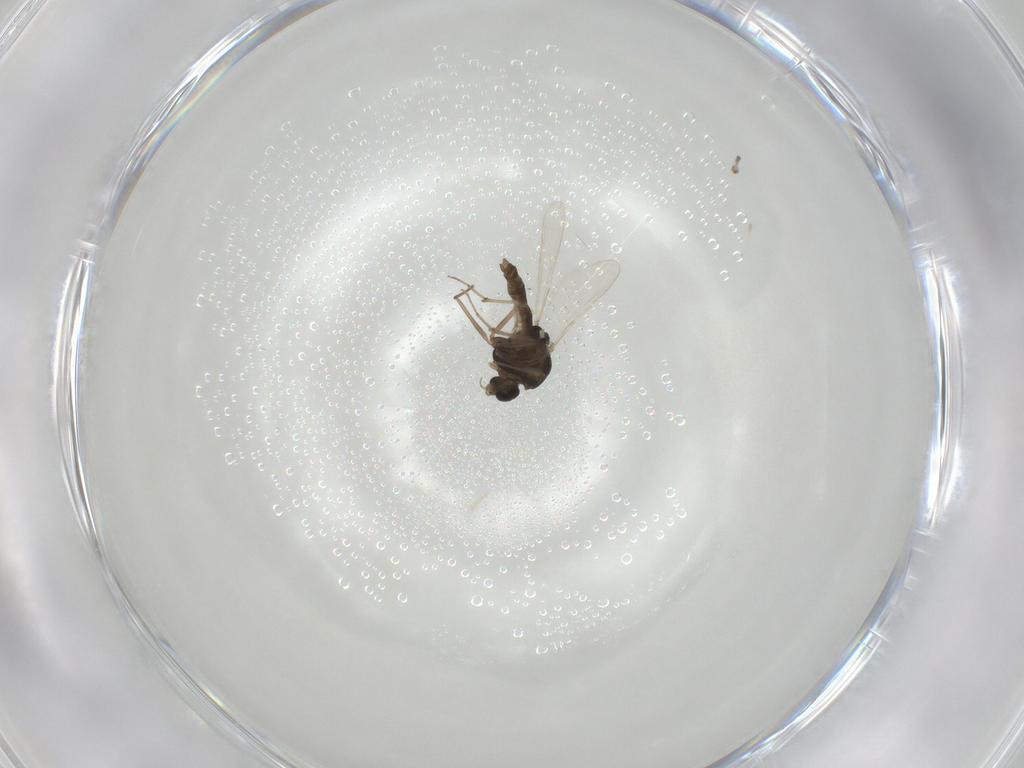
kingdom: Animalia
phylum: Arthropoda
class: Insecta
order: Diptera
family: Chironomidae
